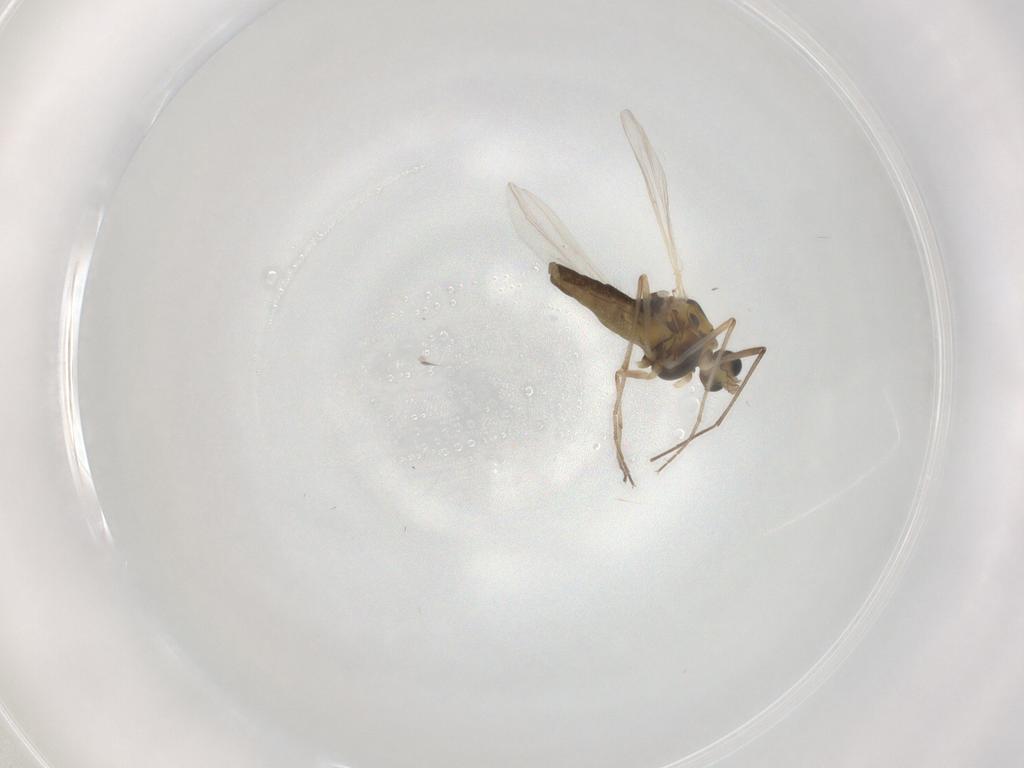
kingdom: Animalia
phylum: Arthropoda
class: Insecta
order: Diptera
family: Chironomidae
